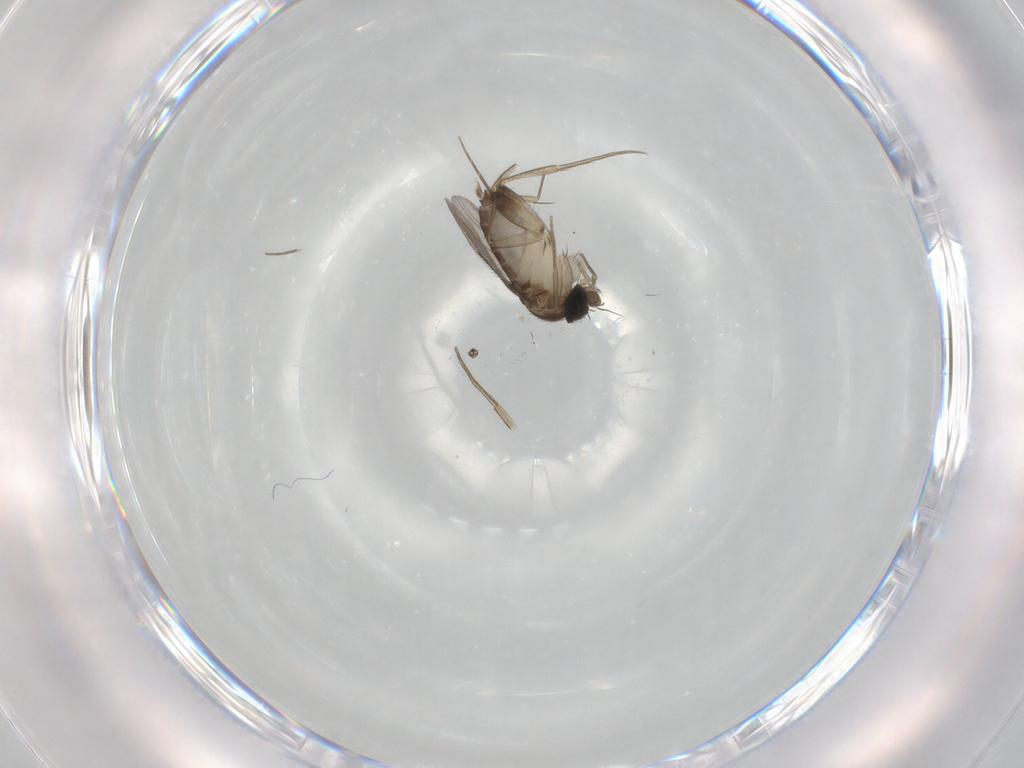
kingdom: Animalia
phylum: Arthropoda
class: Insecta
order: Diptera
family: Phoridae
